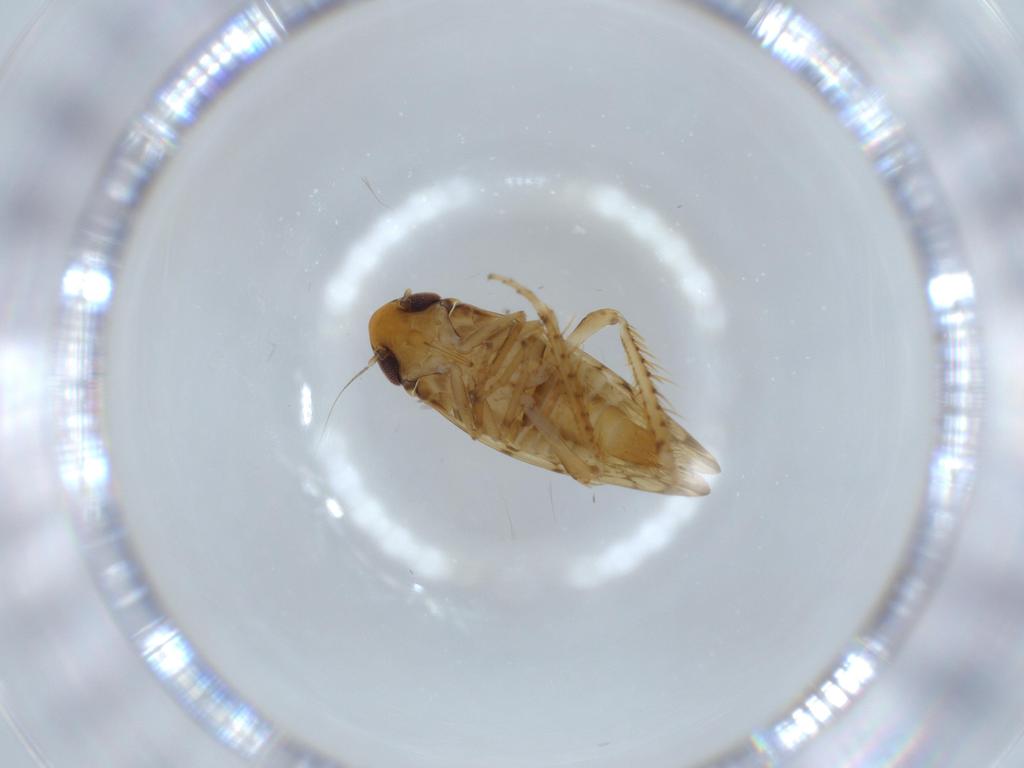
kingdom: Animalia
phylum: Arthropoda
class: Insecta
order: Hemiptera
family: Cicadellidae
